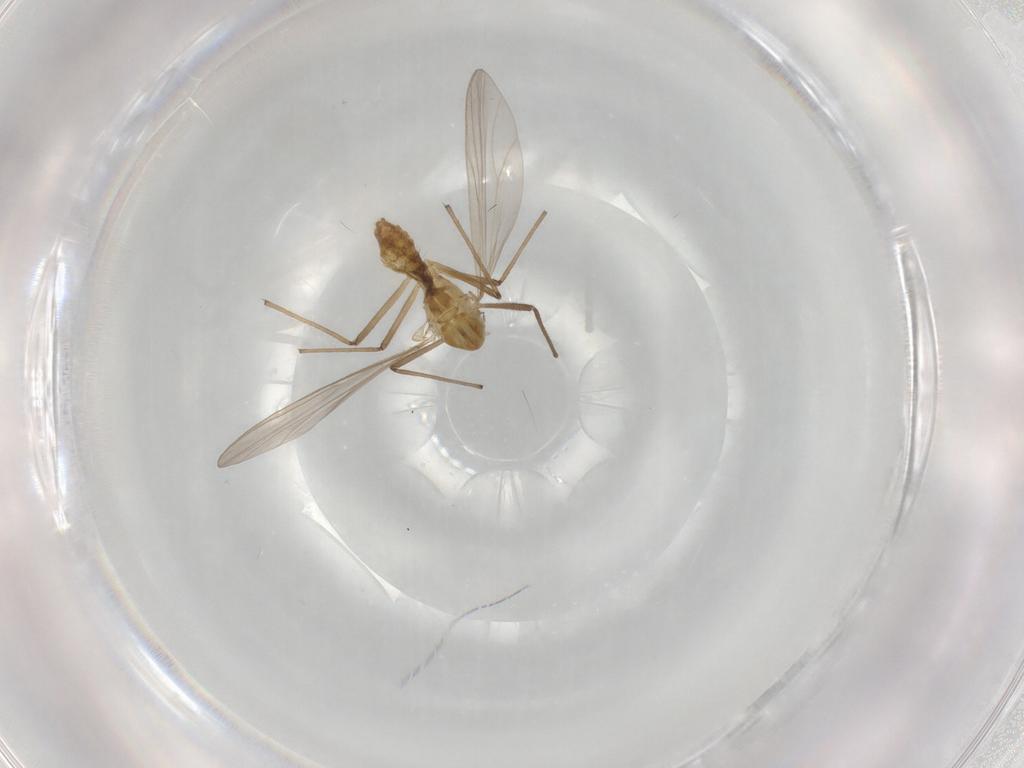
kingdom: Animalia
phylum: Arthropoda
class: Insecta
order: Diptera
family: Chironomidae
